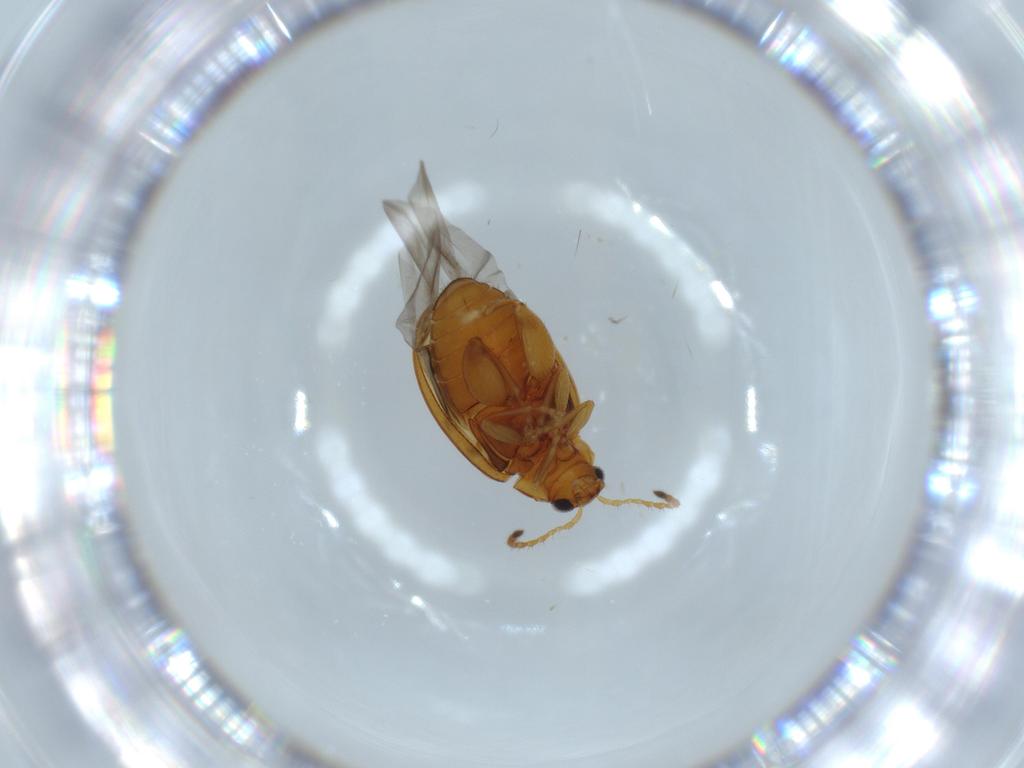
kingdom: Animalia
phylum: Arthropoda
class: Insecta
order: Coleoptera
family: Chrysomelidae
